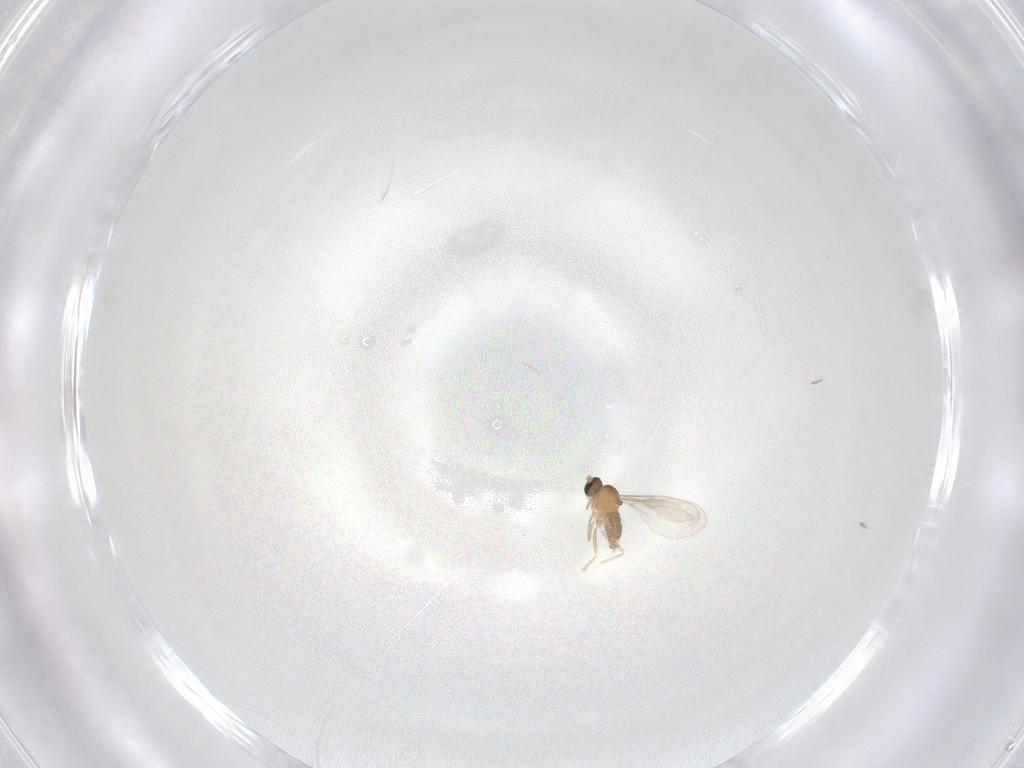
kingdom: Animalia
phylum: Arthropoda
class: Insecta
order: Diptera
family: Cecidomyiidae
